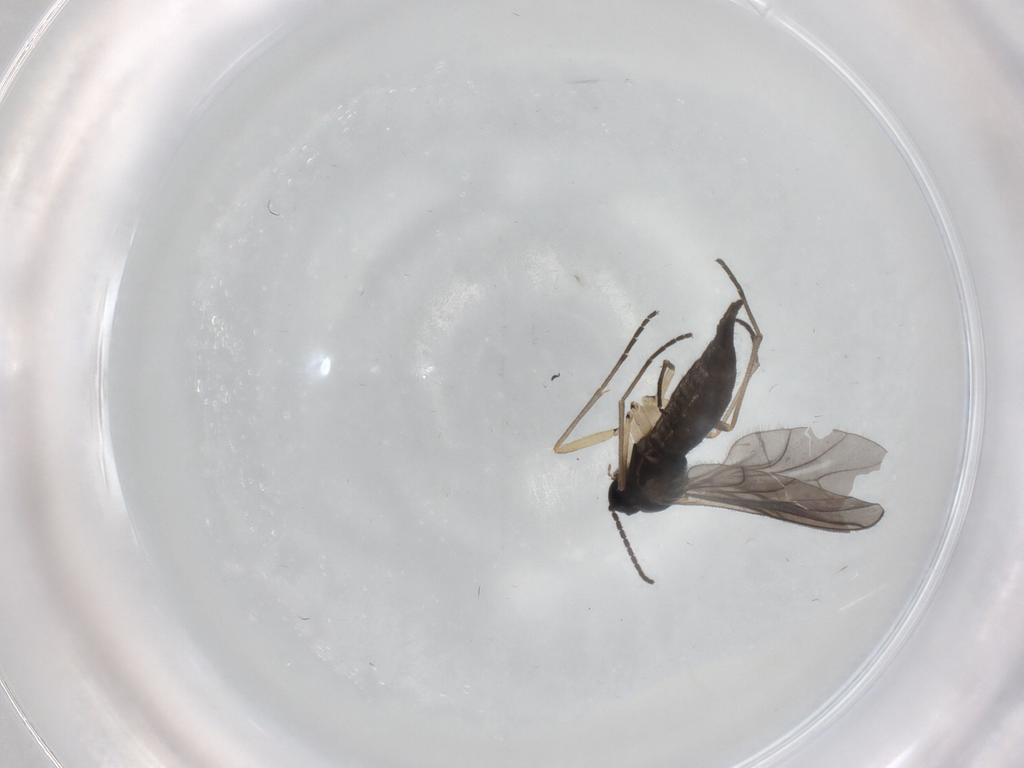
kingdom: Animalia
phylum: Arthropoda
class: Insecta
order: Diptera
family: Sciaridae
